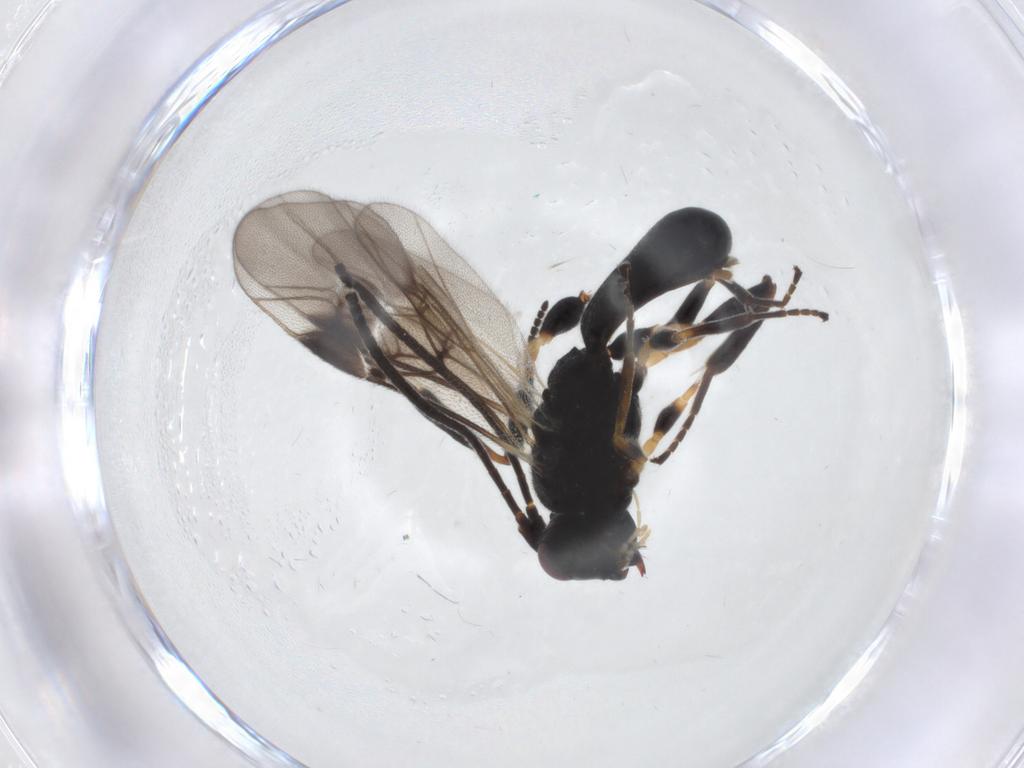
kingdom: Animalia
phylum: Arthropoda
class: Insecta
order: Hymenoptera
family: Braconidae
